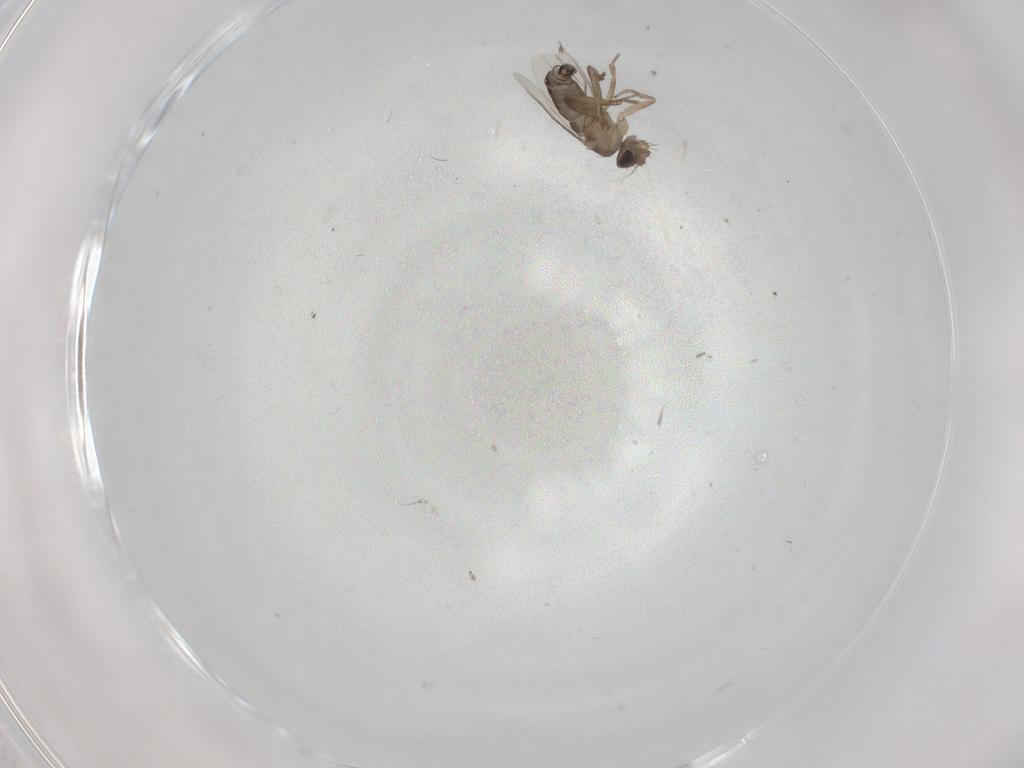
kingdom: Animalia
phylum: Arthropoda
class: Insecta
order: Diptera
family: Phoridae
